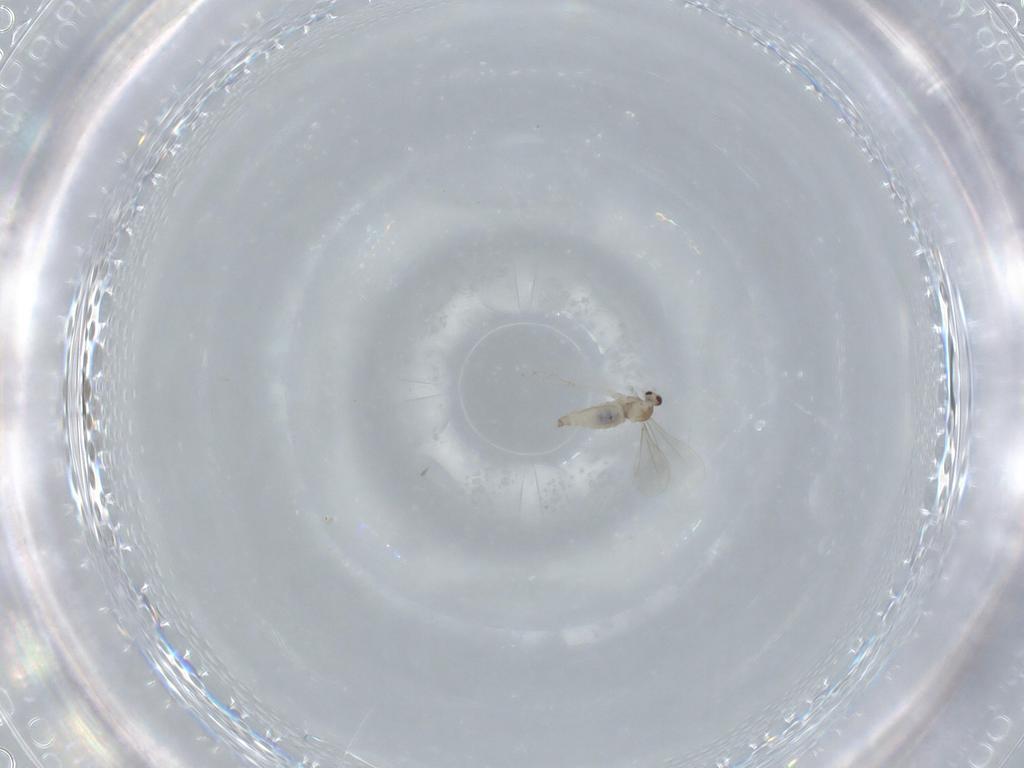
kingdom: Animalia
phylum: Arthropoda
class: Insecta
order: Diptera
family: Cecidomyiidae
